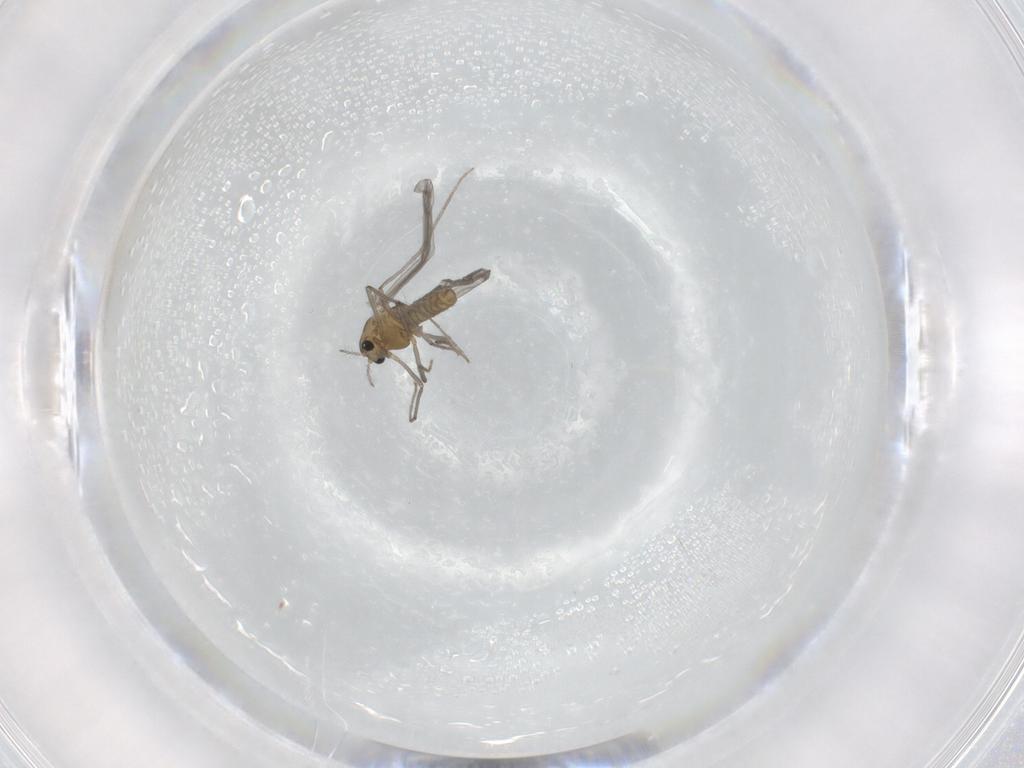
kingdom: Animalia
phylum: Arthropoda
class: Insecta
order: Diptera
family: Chironomidae
